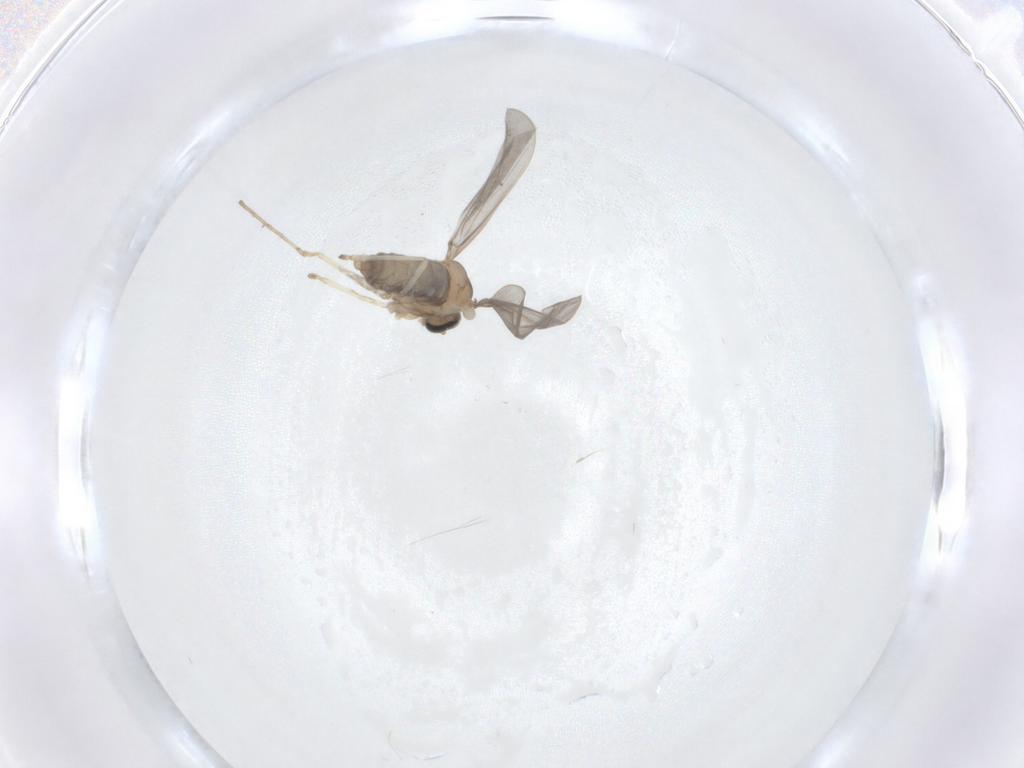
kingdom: Animalia
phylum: Arthropoda
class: Insecta
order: Diptera
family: Cecidomyiidae
